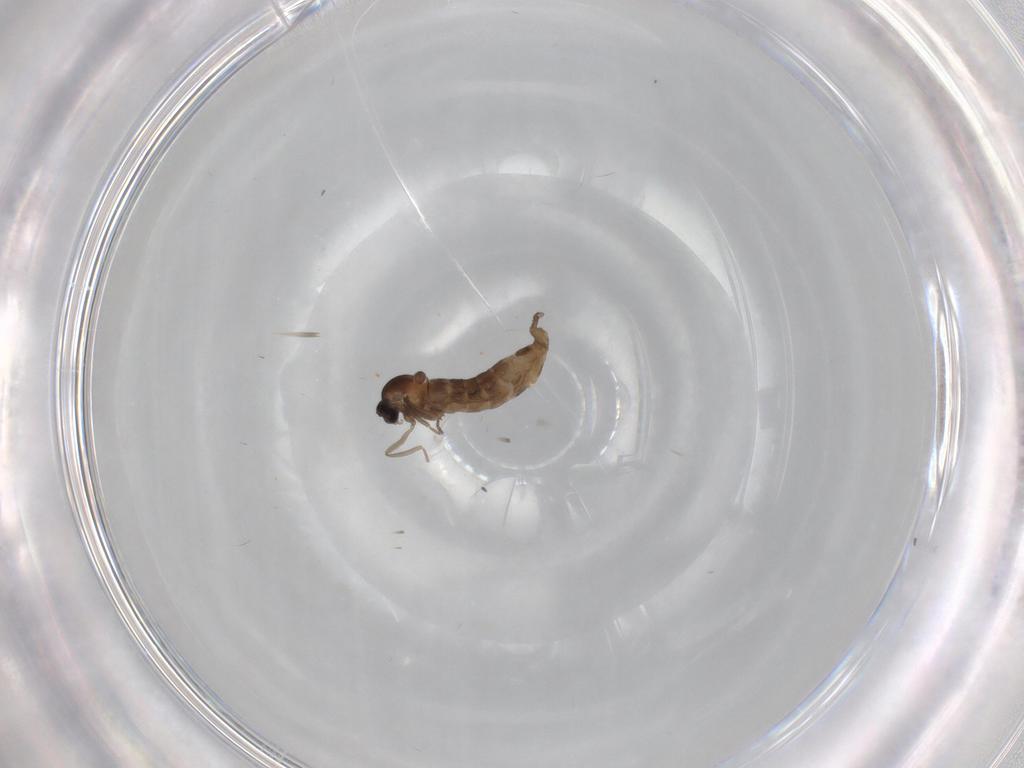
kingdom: Animalia
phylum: Arthropoda
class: Insecta
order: Diptera
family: Cecidomyiidae
